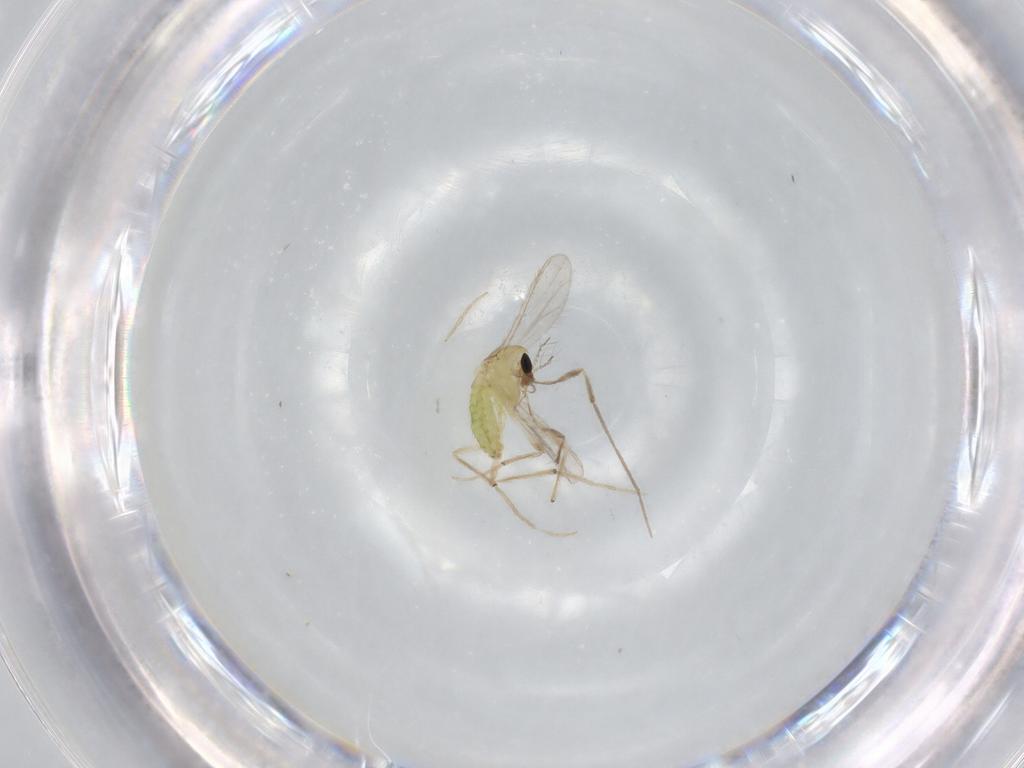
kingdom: Animalia
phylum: Arthropoda
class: Insecta
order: Diptera
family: Chironomidae
